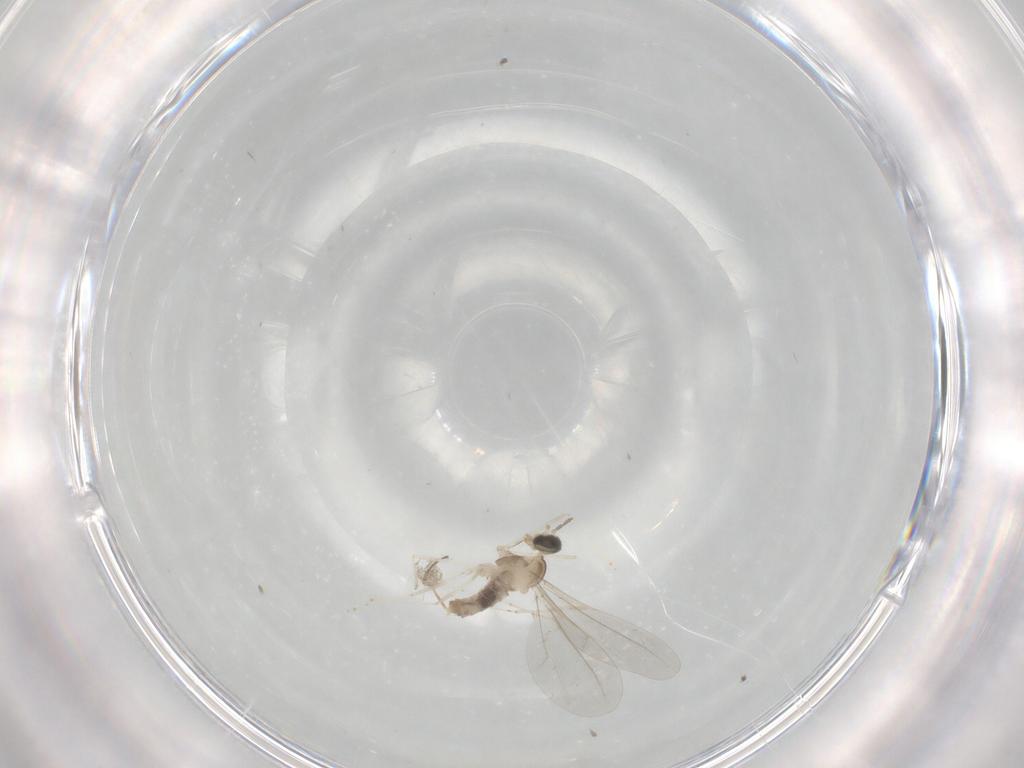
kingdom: Animalia
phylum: Arthropoda
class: Insecta
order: Diptera
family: Cecidomyiidae
